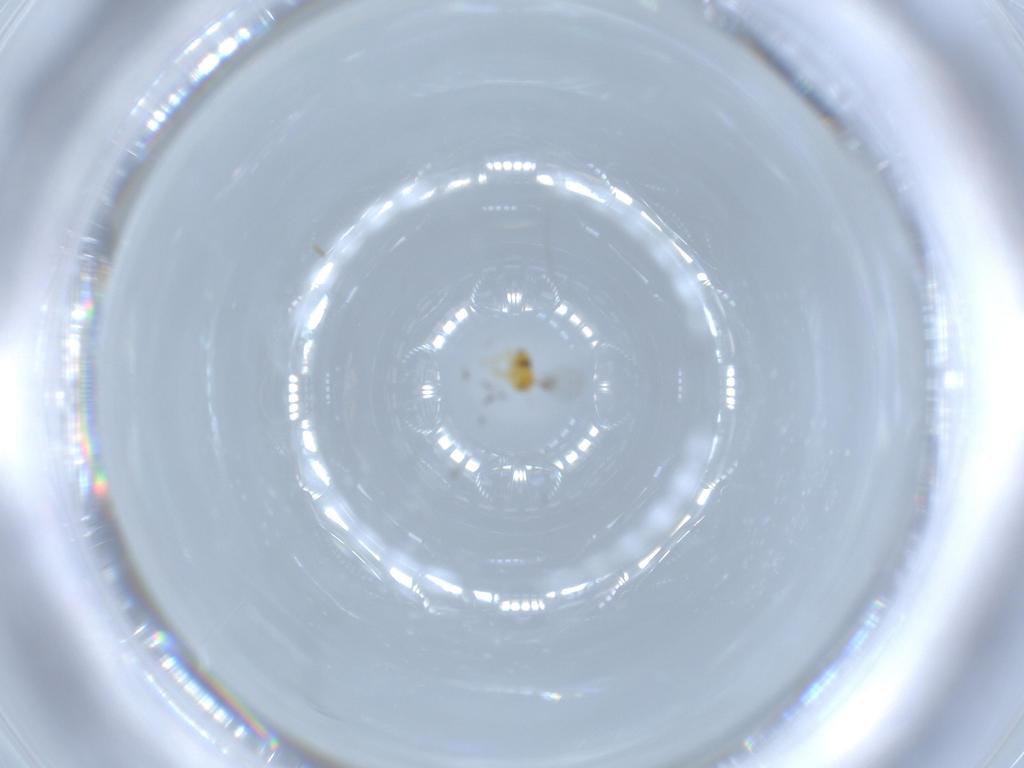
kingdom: Animalia
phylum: Arthropoda
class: Insecta
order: Hymenoptera
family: Trichogrammatidae
